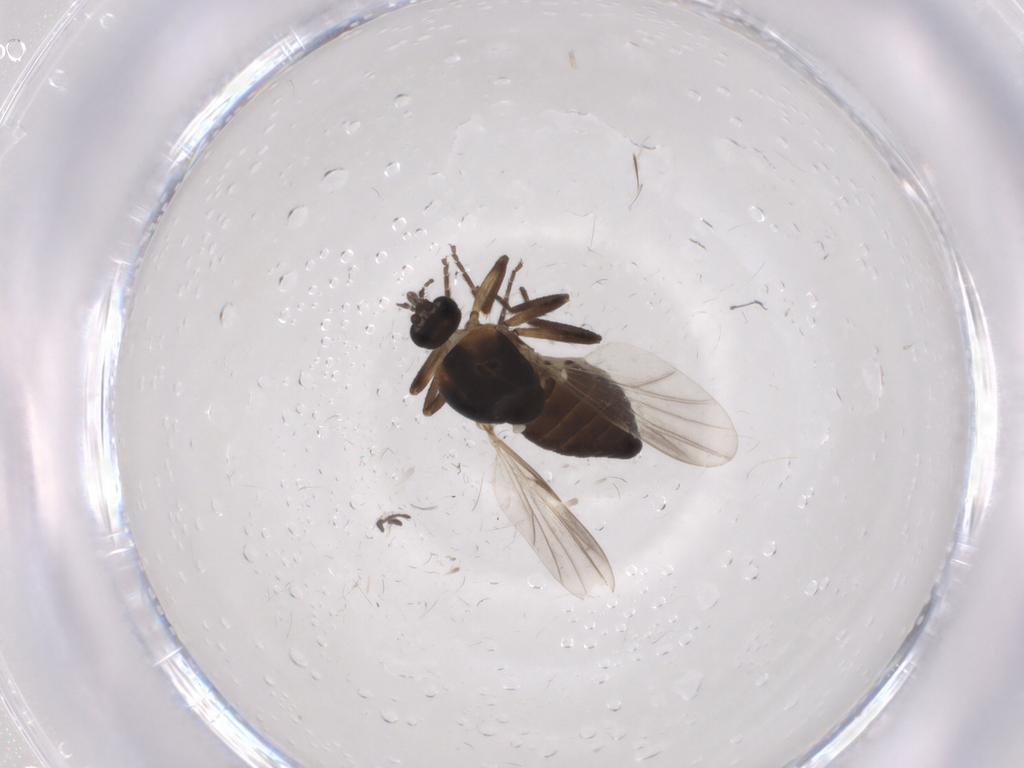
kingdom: Animalia
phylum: Arthropoda
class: Insecta
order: Diptera
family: Ceratopogonidae
